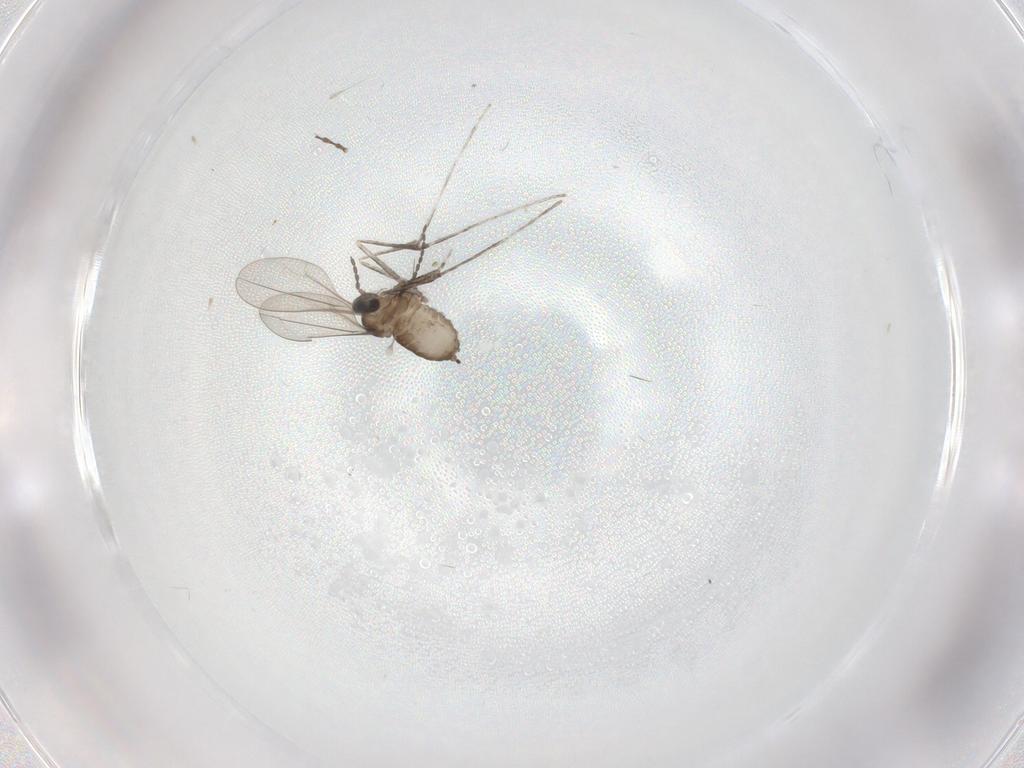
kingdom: Animalia
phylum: Arthropoda
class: Insecta
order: Diptera
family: Cecidomyiidae
